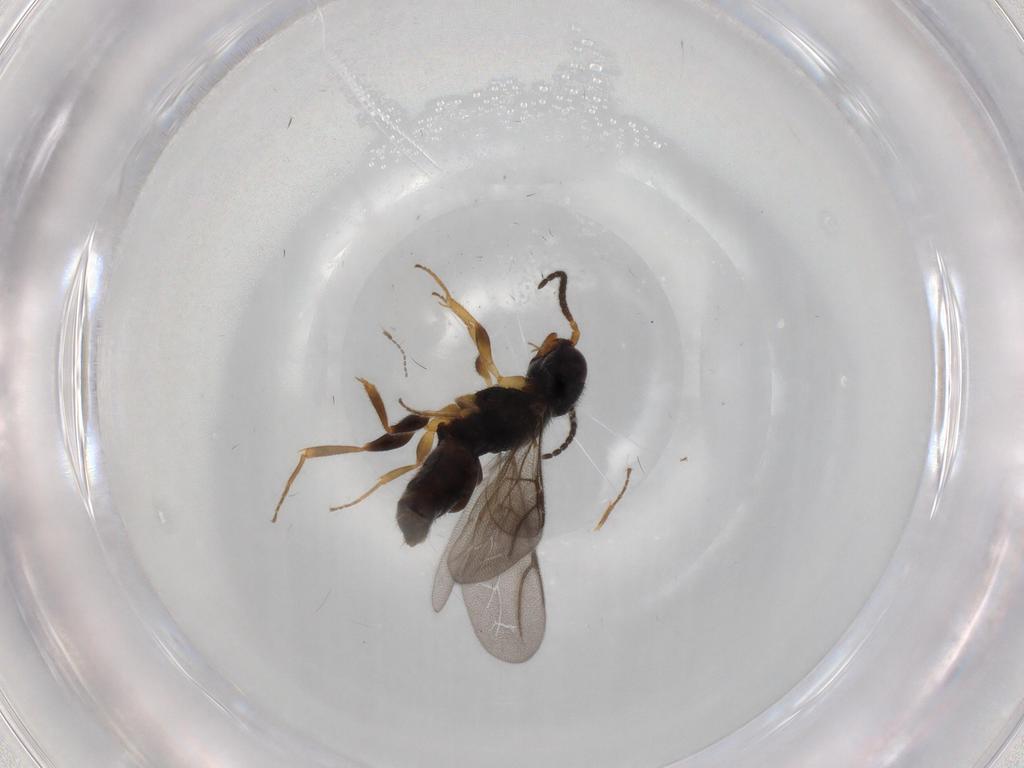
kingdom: Animalia
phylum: Arthropoda
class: Insecta
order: Hymenoptera
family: Bethylidae
